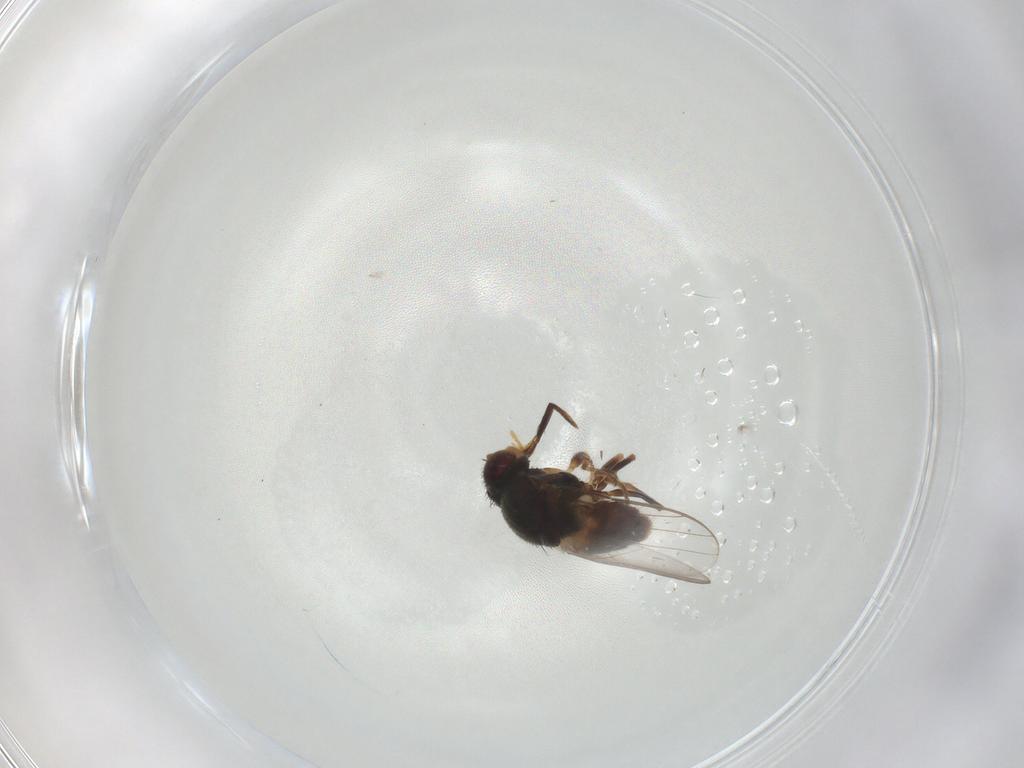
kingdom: Animalia
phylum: Arthropoda
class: Insecta
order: Diptera
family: Chloropidae
